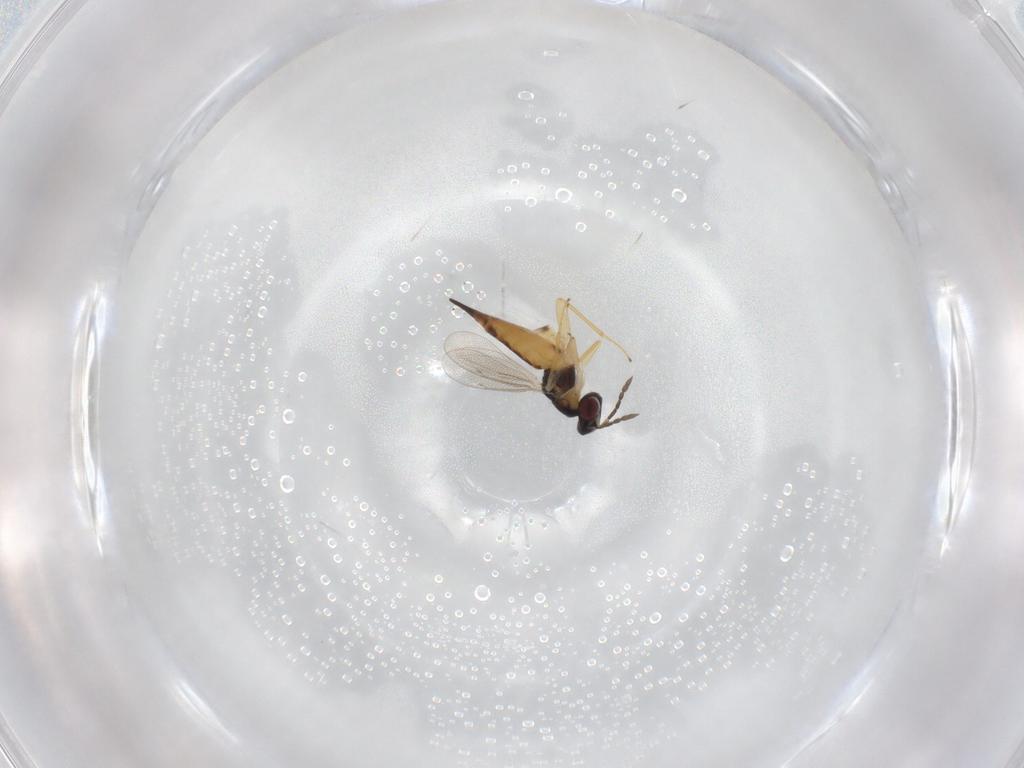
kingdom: Animalia
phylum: Arthropoda
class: Insecta
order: Hymenoptera
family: Eulophidae
